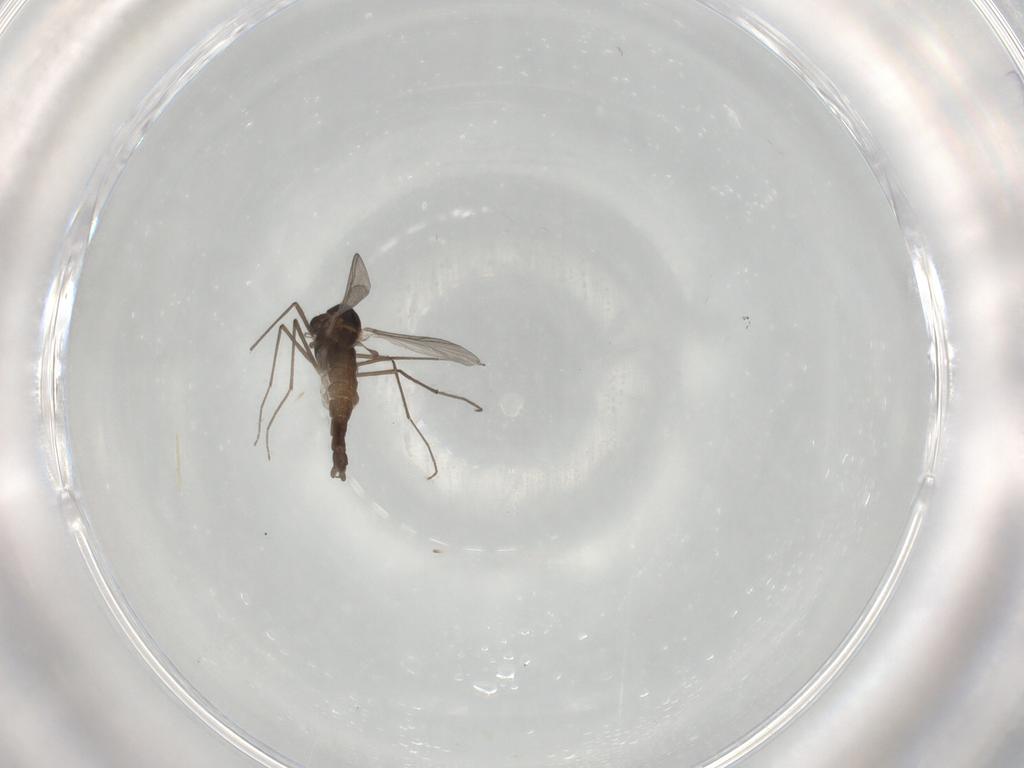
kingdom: Animalia
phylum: Arthropoda
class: Insecta
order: Diptera
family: Chironomidae
